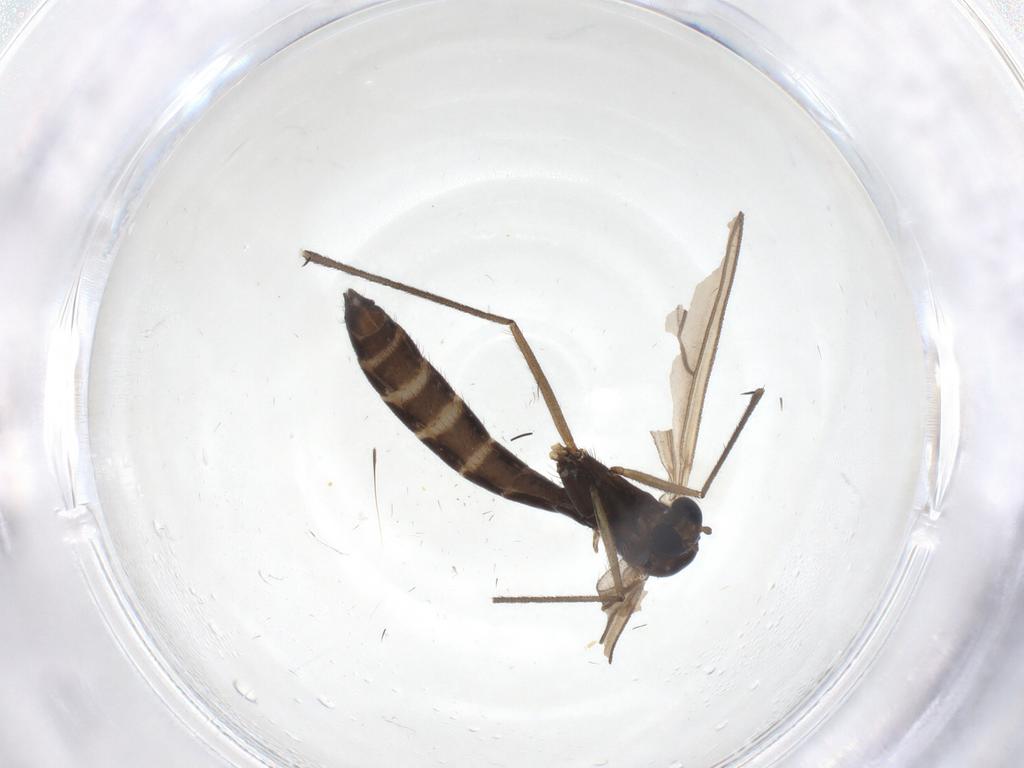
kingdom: Animalia
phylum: Arthropoda
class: Insecta
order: Diptera
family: Ditomyiidae
